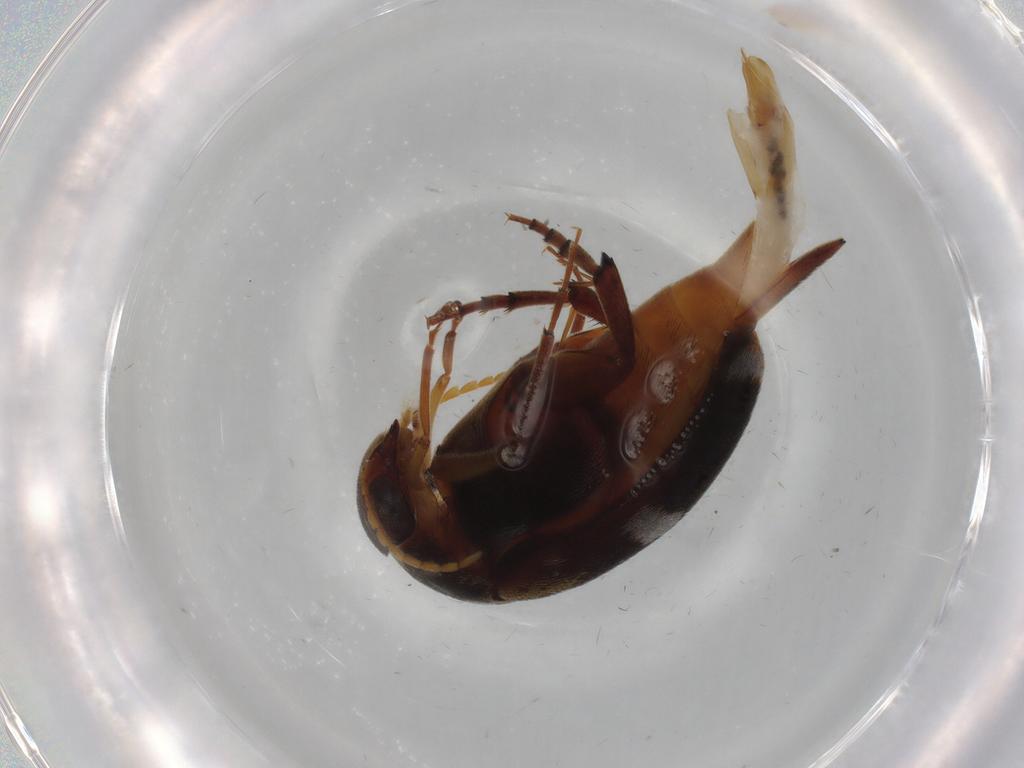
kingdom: Animalia
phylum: Arthropoda
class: Insecta
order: Coleoptera
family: Mordellidae
